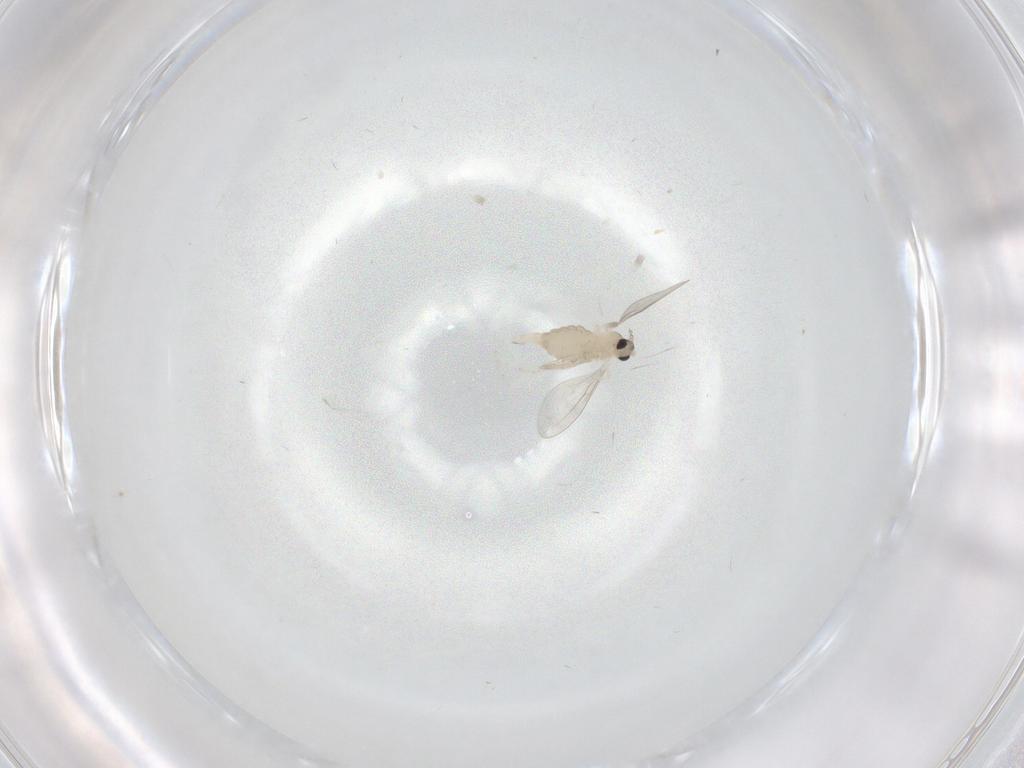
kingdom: Animalia
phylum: Arthropoda
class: Insecta
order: Diptera
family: Cecidomyiidae
